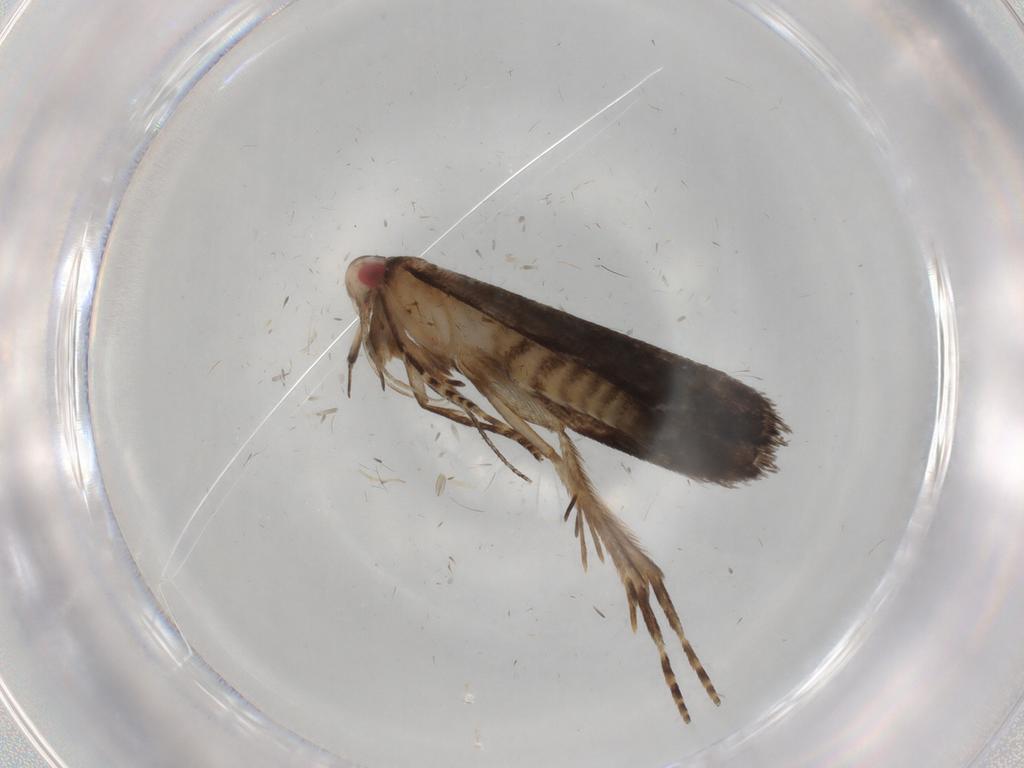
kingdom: Animalia
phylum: Arthropoda
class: Insecta
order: Lepidoptera
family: Gelechiidae
